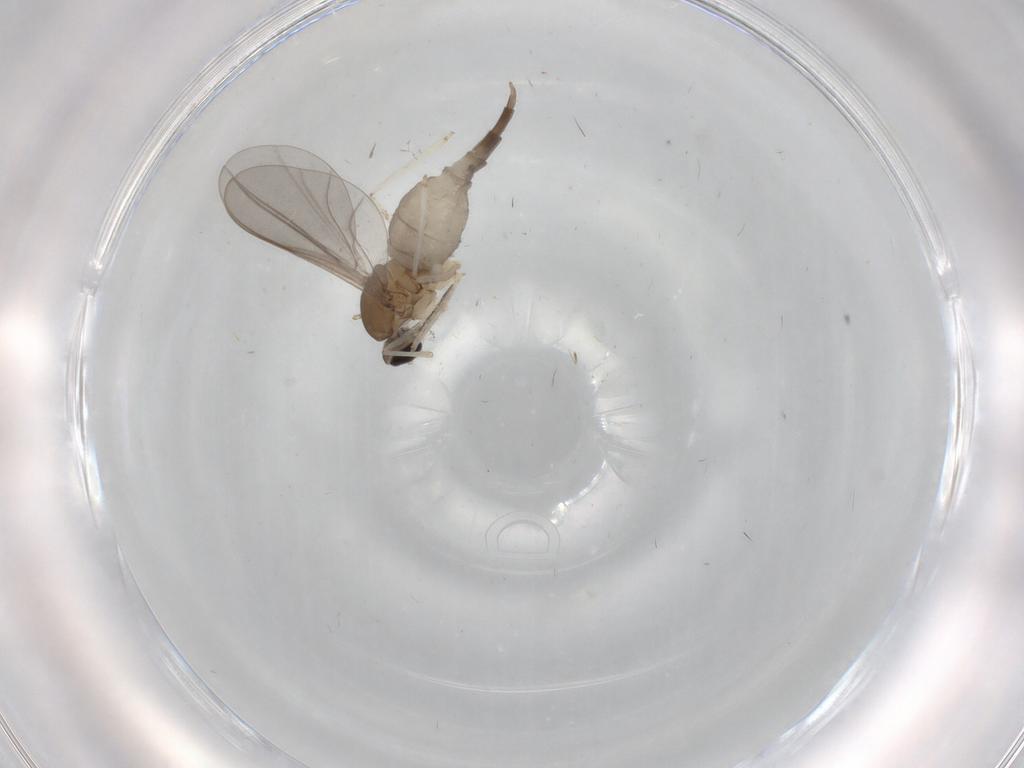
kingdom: Animalia
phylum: Arthropoda
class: Insecta
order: Diptera
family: Cecidomyiidae
